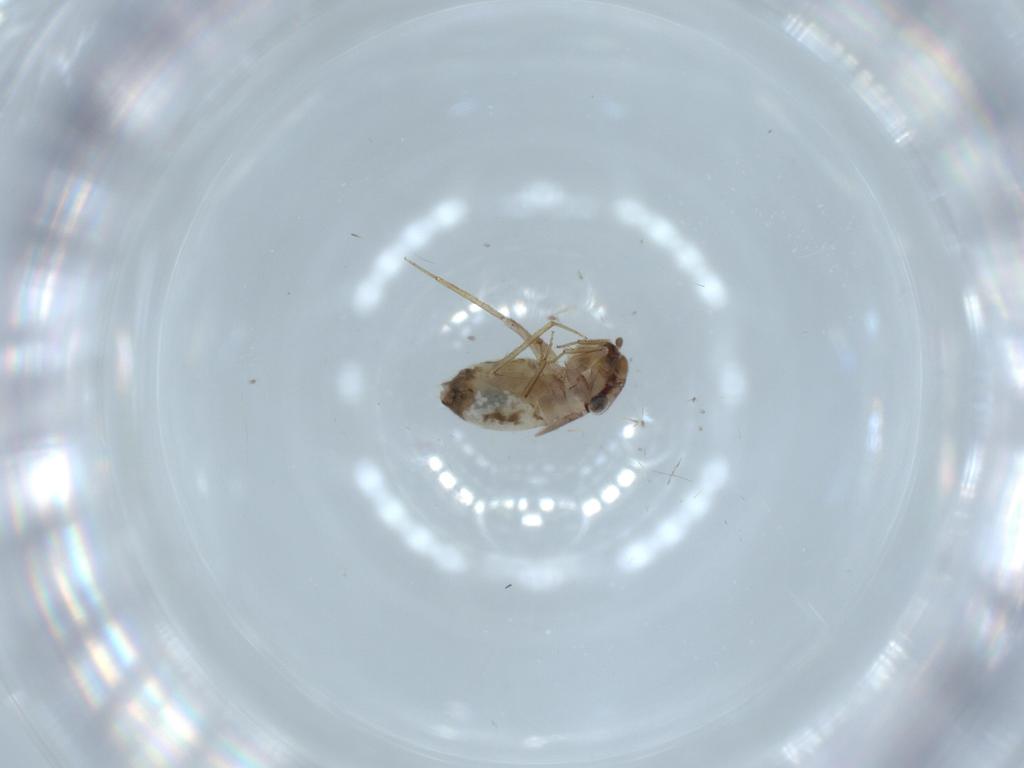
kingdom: Animalia
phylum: Arthropoda
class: Insecta
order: Psocodea
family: Lepidopsocidae
